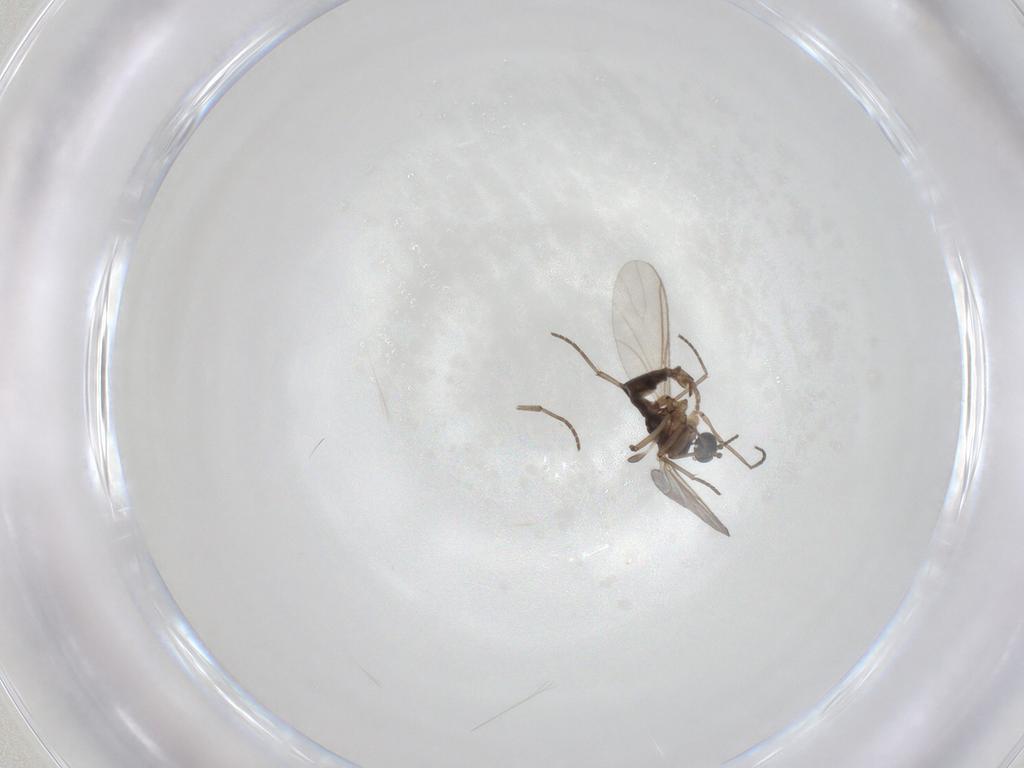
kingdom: Animalia
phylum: Arthropoda
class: Insecta
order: Diptera
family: Sciaridae
